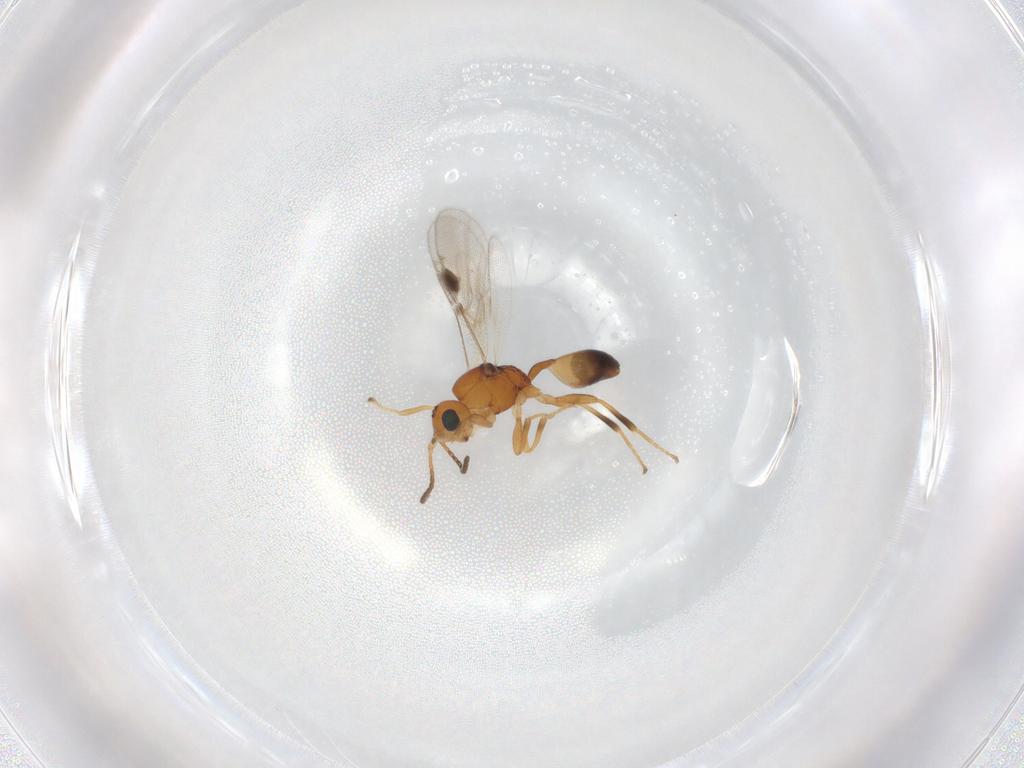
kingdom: Animalia
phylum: Arthropoda
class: Insecta
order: Hymenoptera
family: Braconidae
